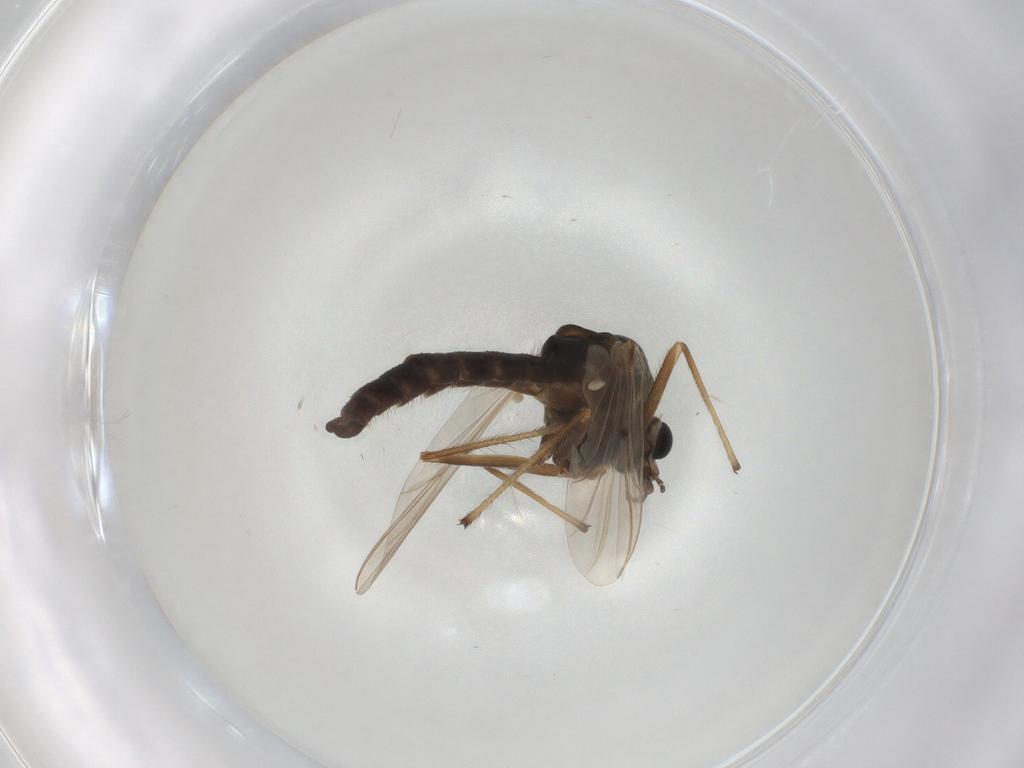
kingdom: Animalia
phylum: Arthropoda
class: Insecta
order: Diptera
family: Chironomidae
